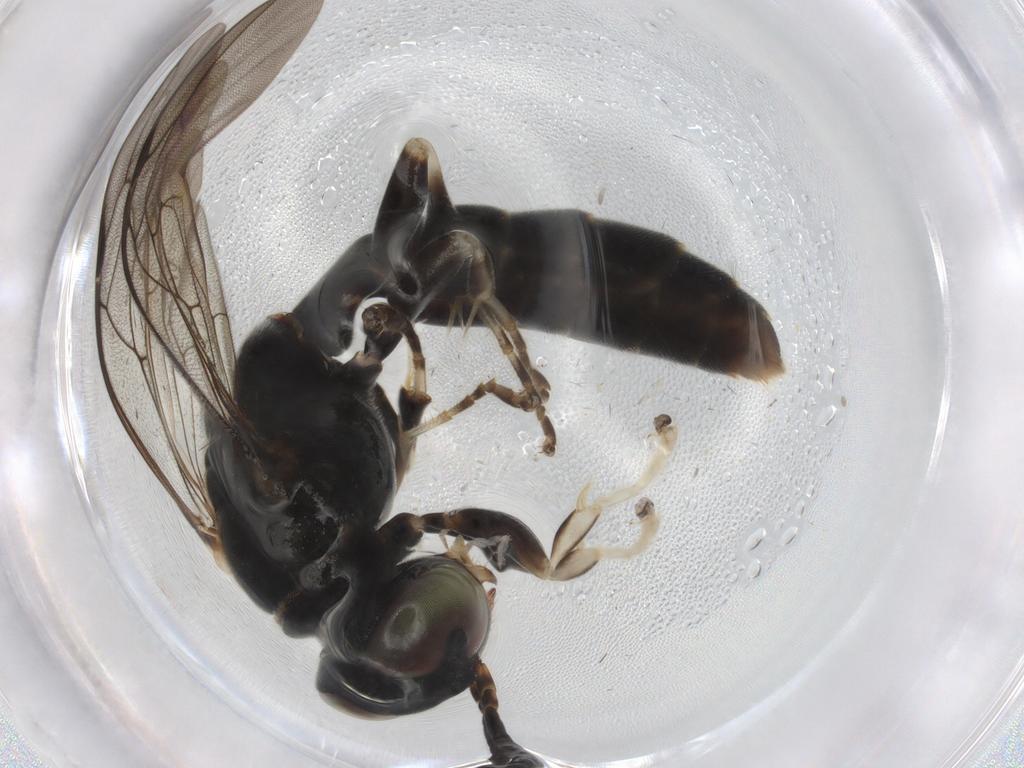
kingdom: Animalia
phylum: Arthropoda
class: Insecta
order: Hymenoptera
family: Crabronidae
